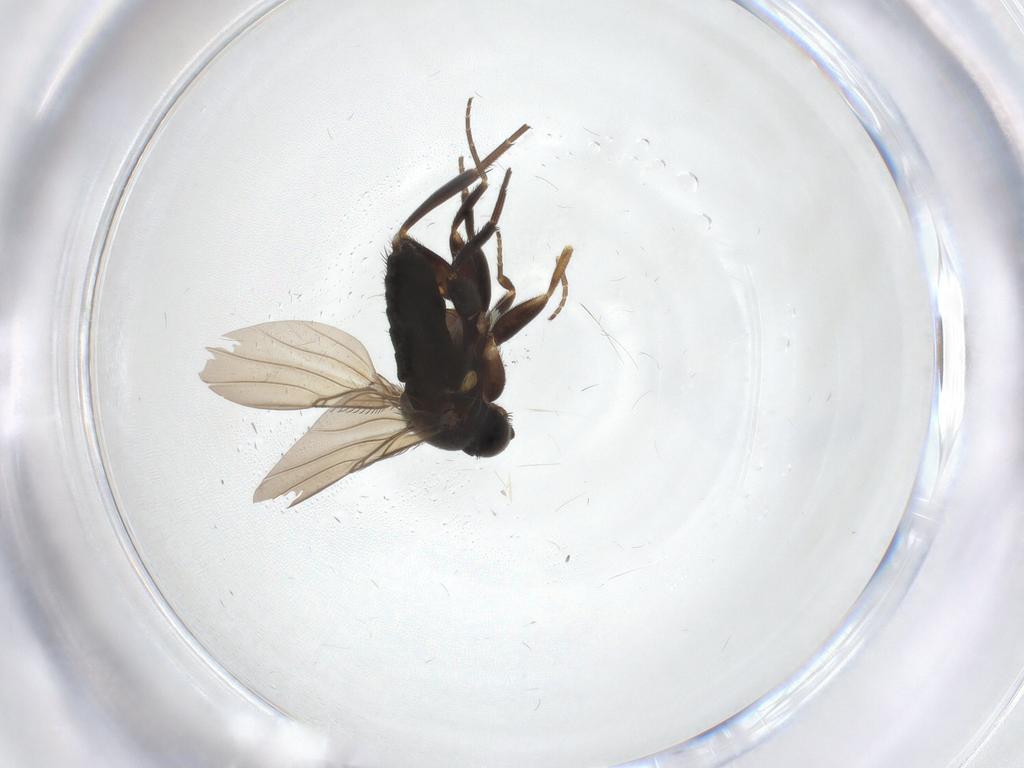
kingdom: Animalia
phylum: Arthropoda
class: Insecta
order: Diptera
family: Phoridae
